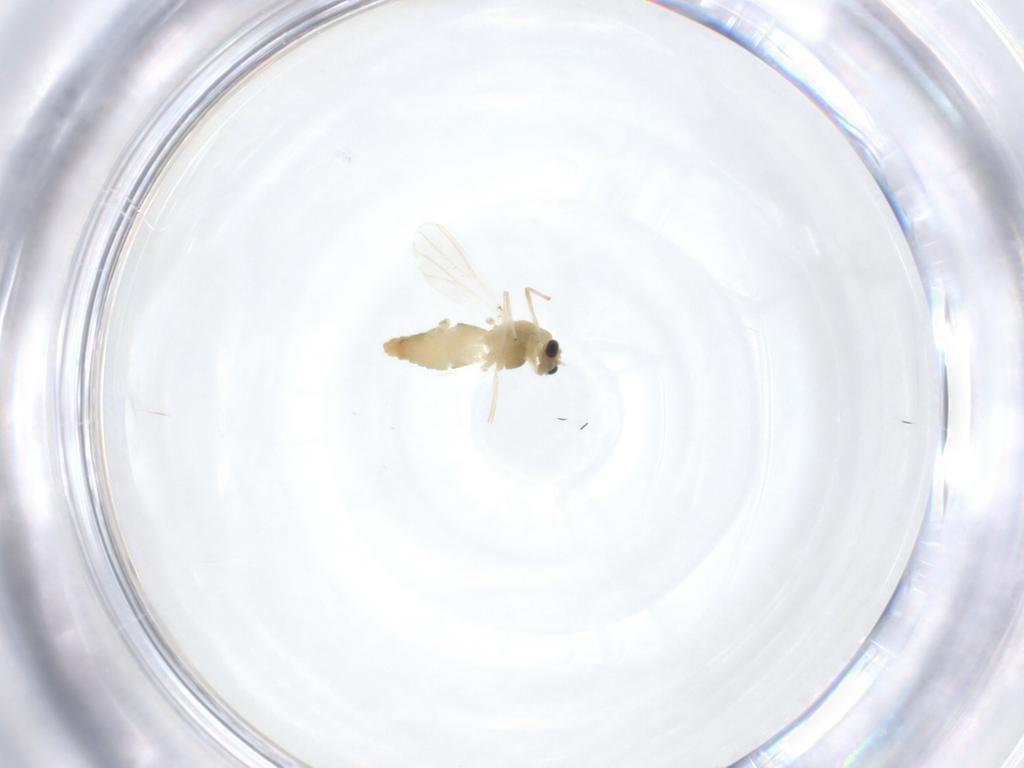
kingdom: Animalia
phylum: Arthropoda
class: Insecta
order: Diptera
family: Chironomidae
